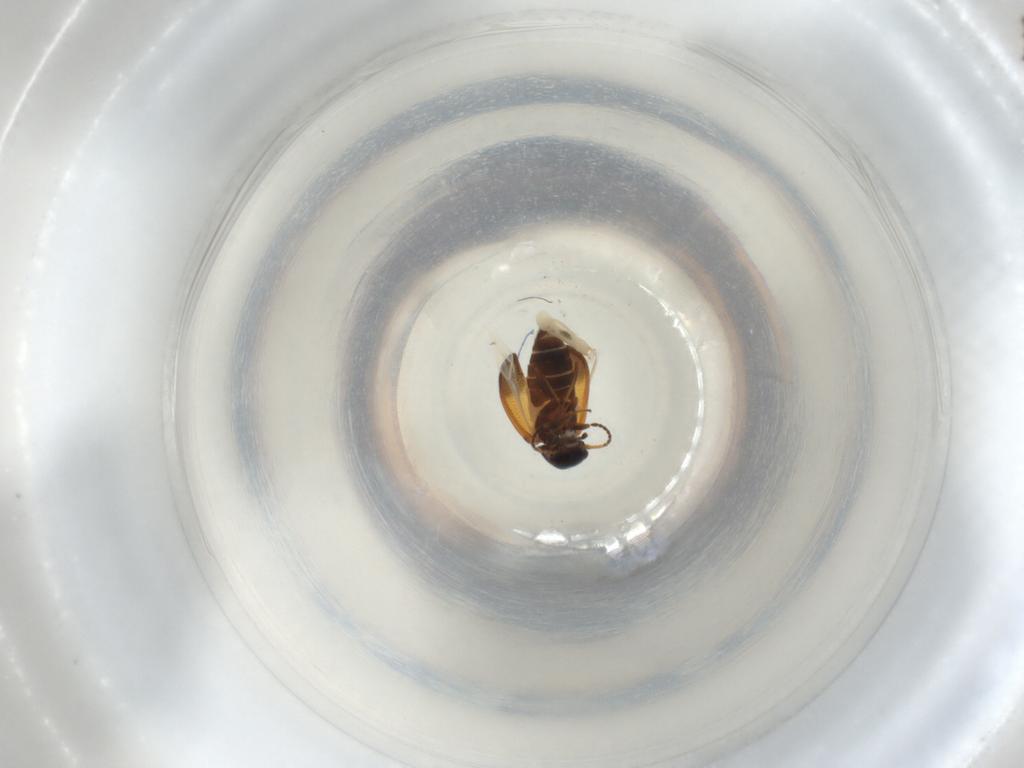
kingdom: Animalia
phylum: Arthropoda
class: Insecta
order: Coleoptera
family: Melyridae
